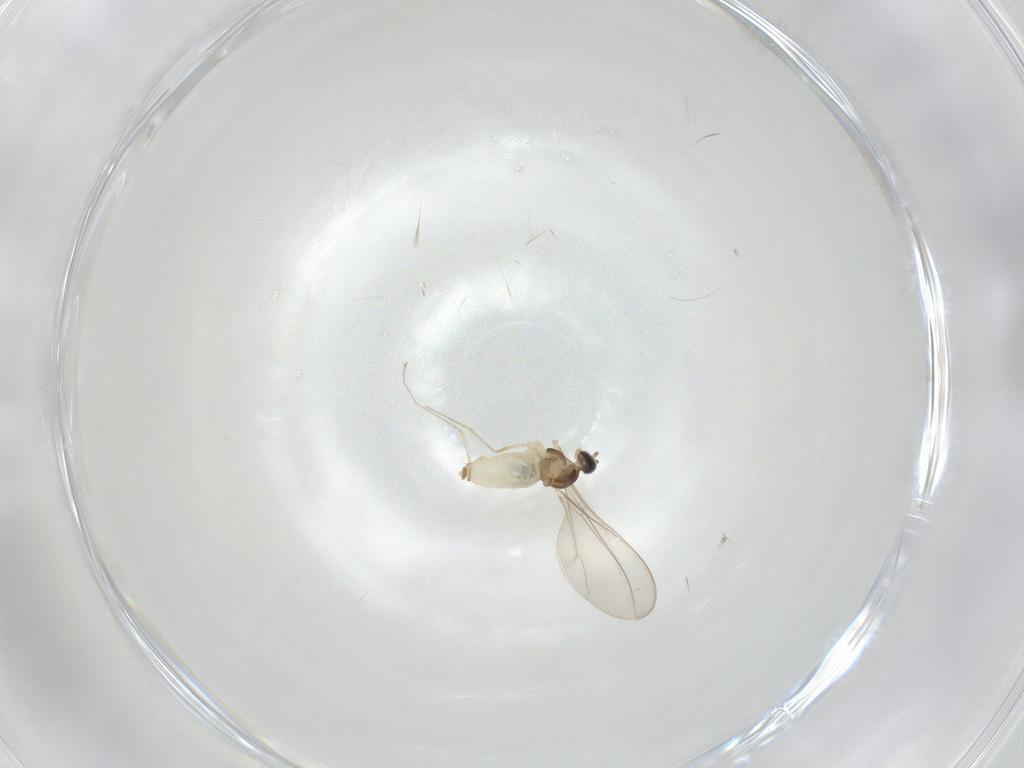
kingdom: Animalia
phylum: Arthropoda
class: Insecta
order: Diptera
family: Cecidomyiidae
